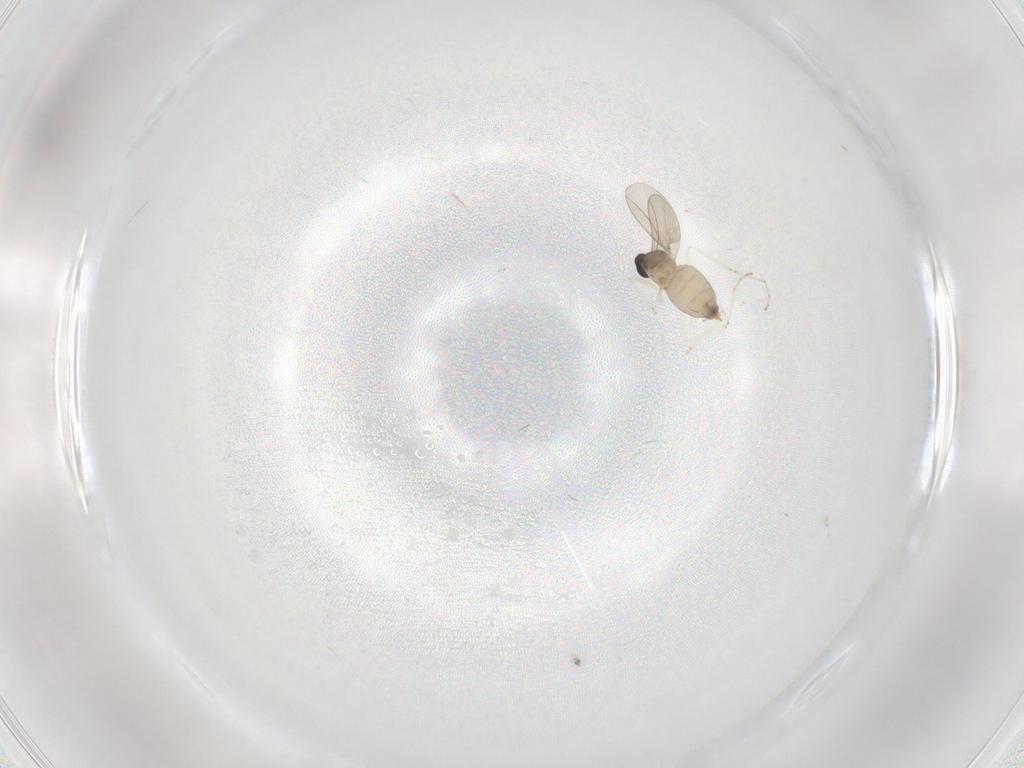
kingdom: Animalia
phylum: Arthropoda
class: Insecta
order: Diptera
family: Cecidomyiidae
